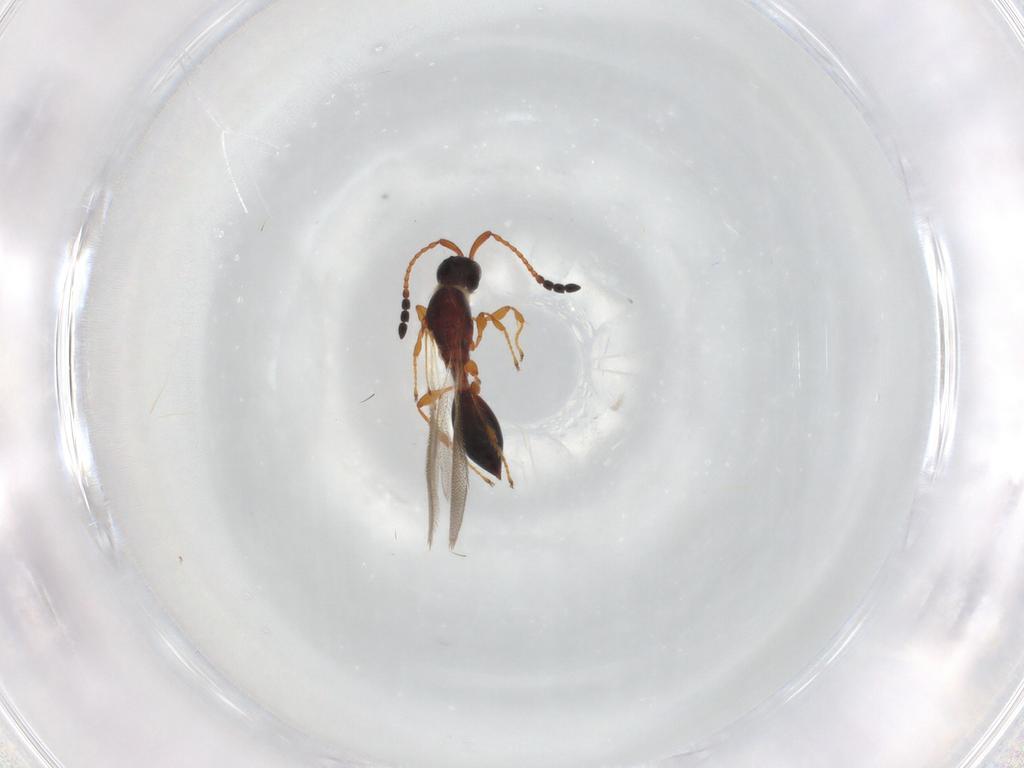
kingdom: Animalia
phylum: Arthropoda
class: Insecta
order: Hymenoptera
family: Diapriidae
